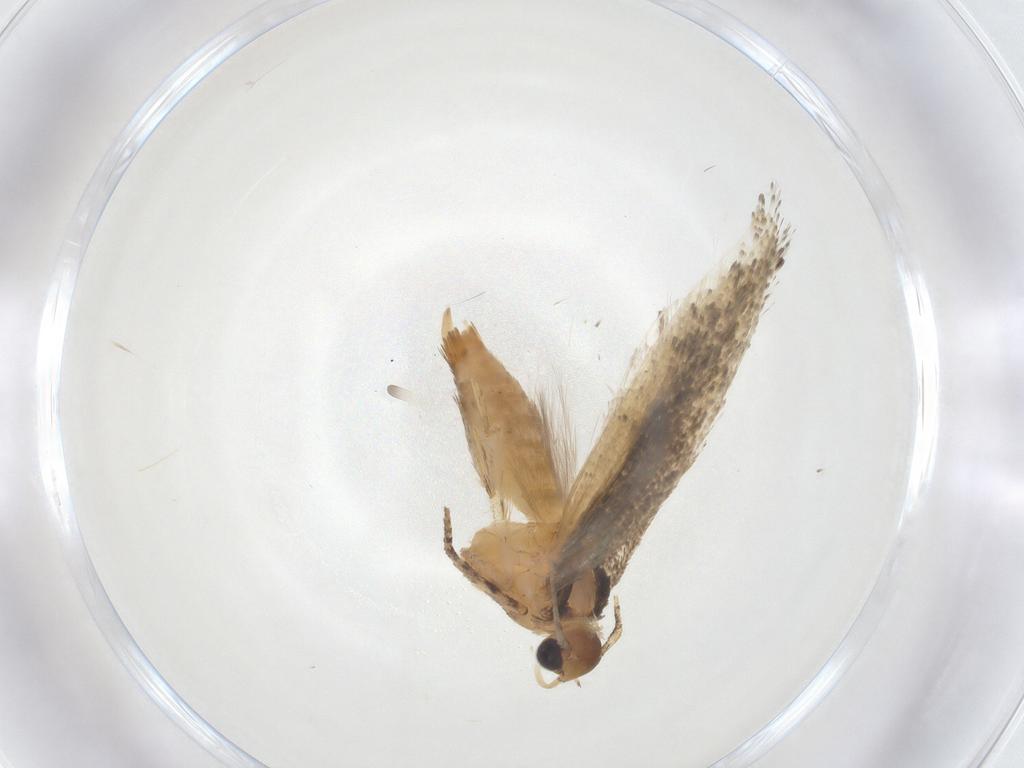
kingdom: Animalia
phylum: Arthropoda
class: Insecta
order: Lepidoptera
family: Gelechiidae
